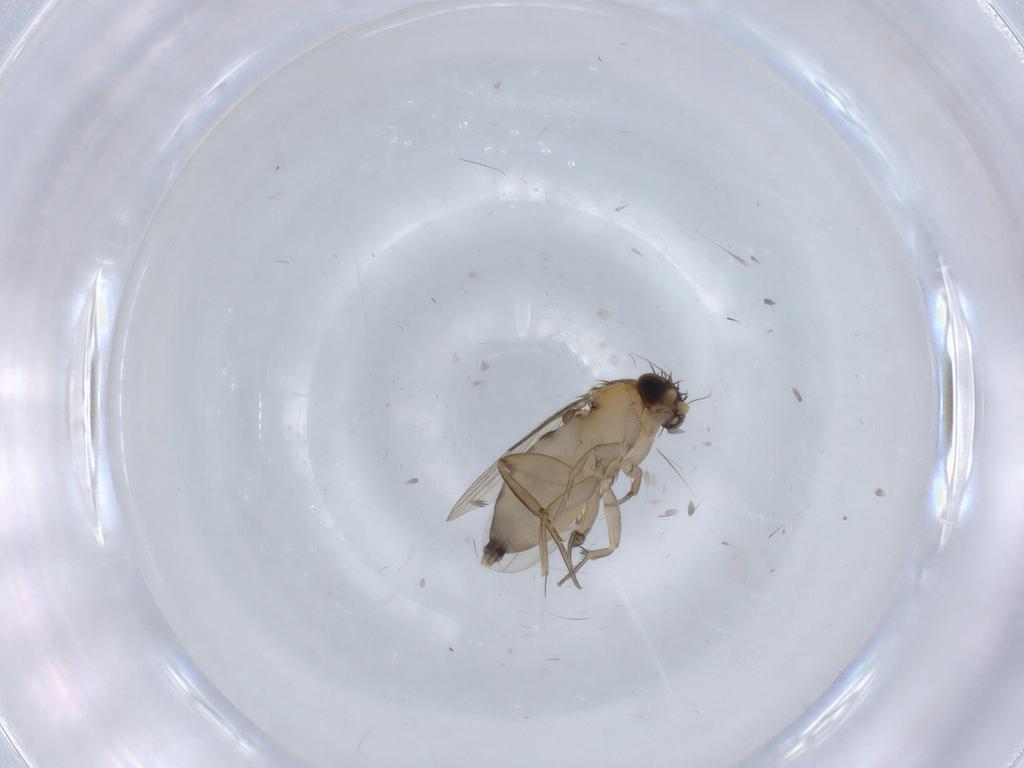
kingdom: Animalia
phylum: Arthropoda
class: Insecta
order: Diptera
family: Phoridae
